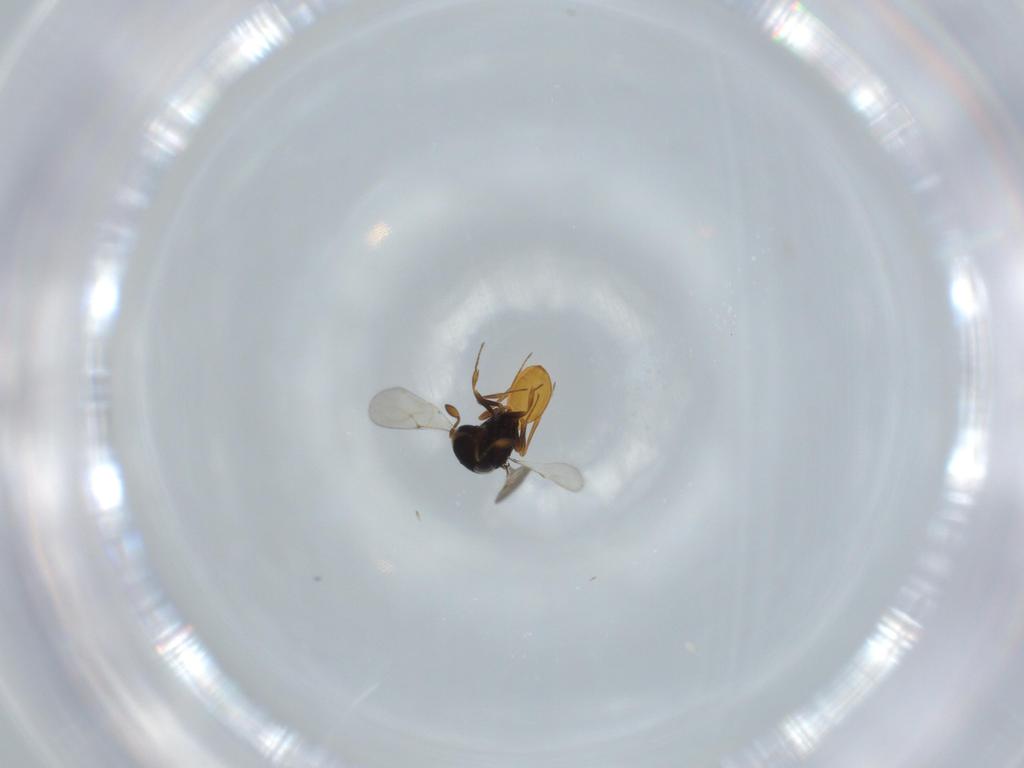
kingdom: Animalia
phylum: Arthropoda
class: Insecta
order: Hymenoptera
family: Scelionidae
